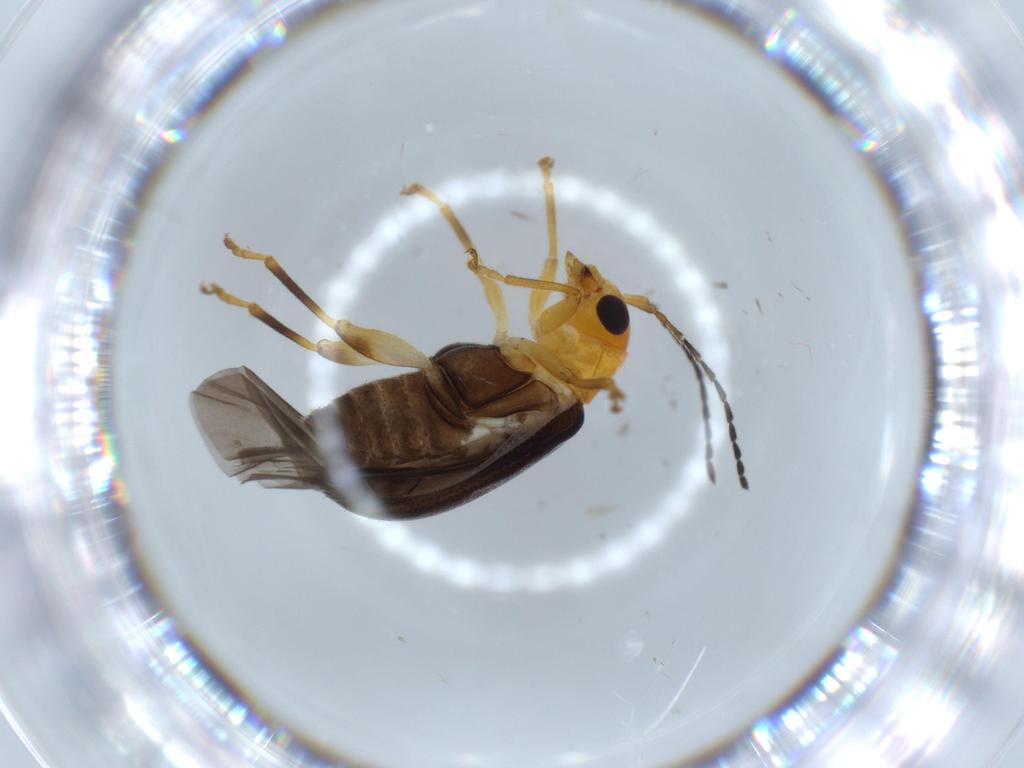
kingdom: Animalia
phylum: Arthropoda
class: Insecta
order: Coleoptera
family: Chrysomelidae
